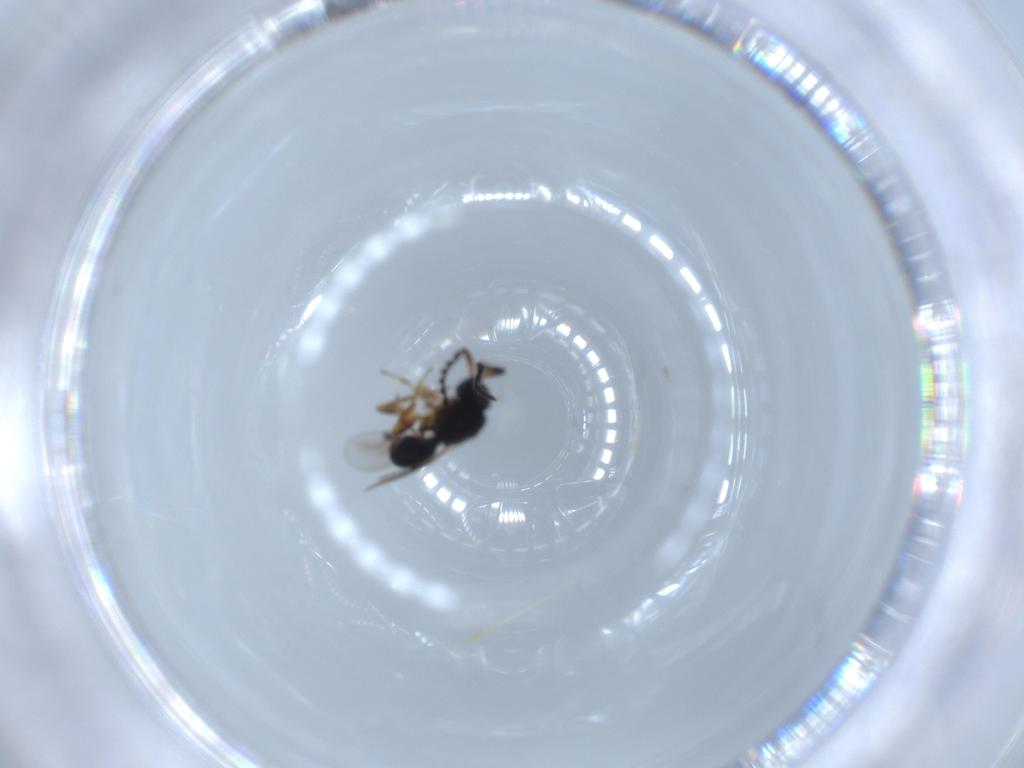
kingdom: Animalia
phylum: Arthropoda
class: Insecta
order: Hymenoptera
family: Megaspilidae
